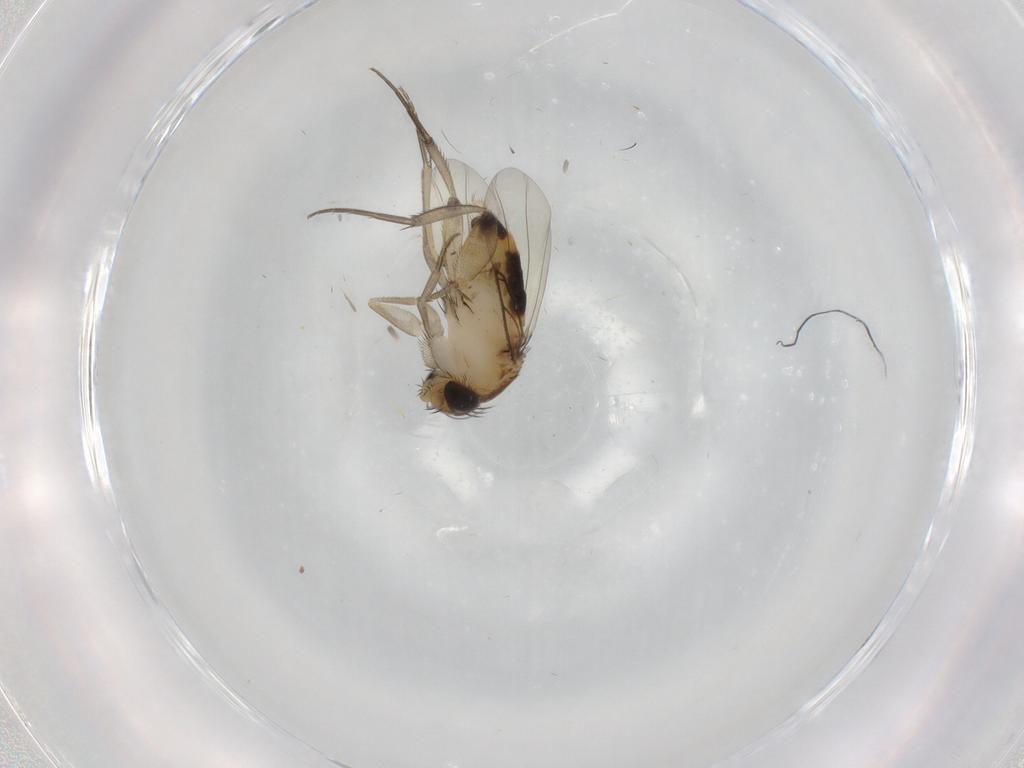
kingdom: Animalia
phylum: Arthropoda
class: Insecta
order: Diptera
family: Phoridae
